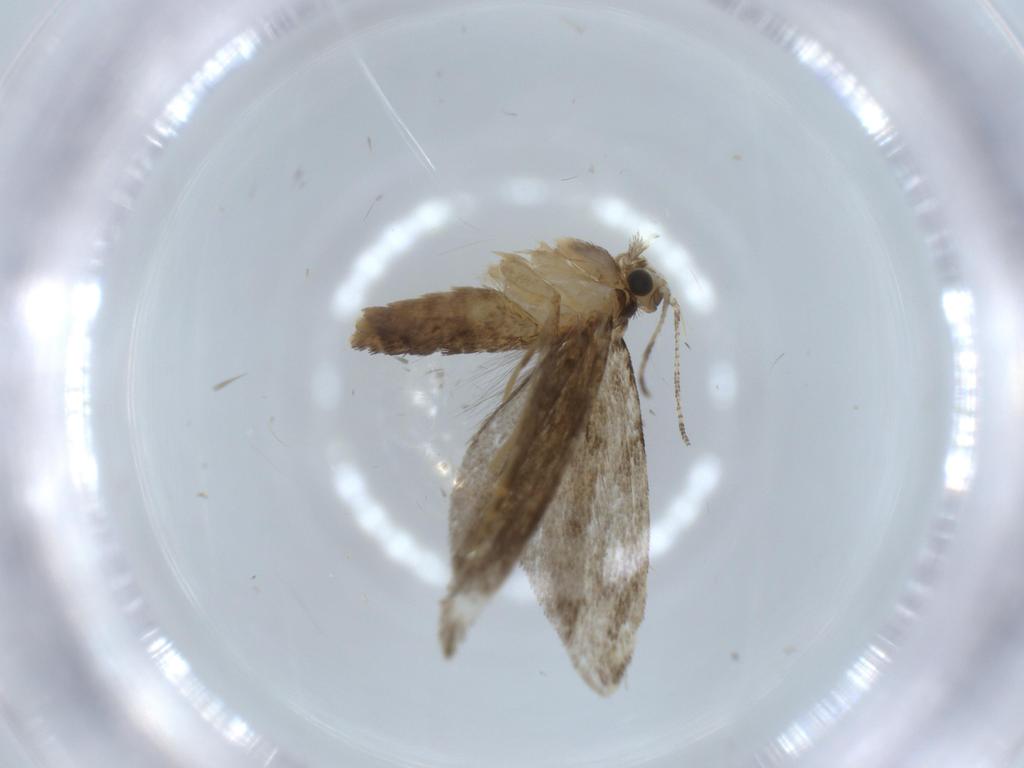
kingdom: Animalia
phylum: Arthropoda
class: Insecta
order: Lepidoptera
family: Tineidae
